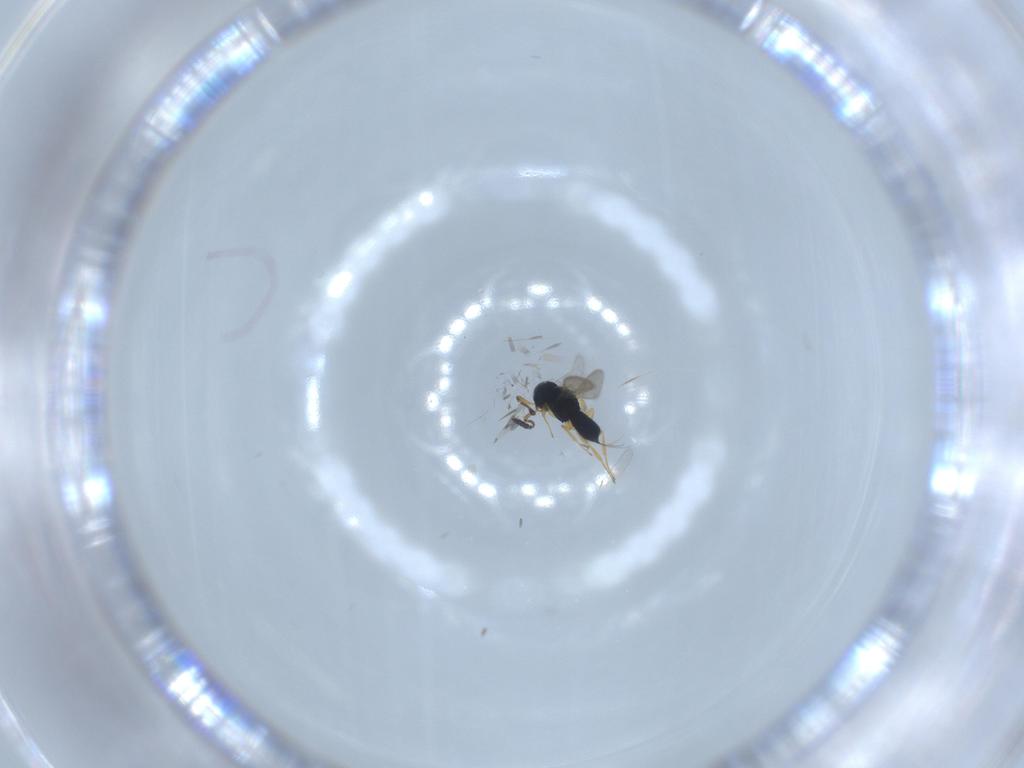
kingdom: Animalia
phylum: Arthropoda
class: Insecta
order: Hymenoptera
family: Scelionidae
